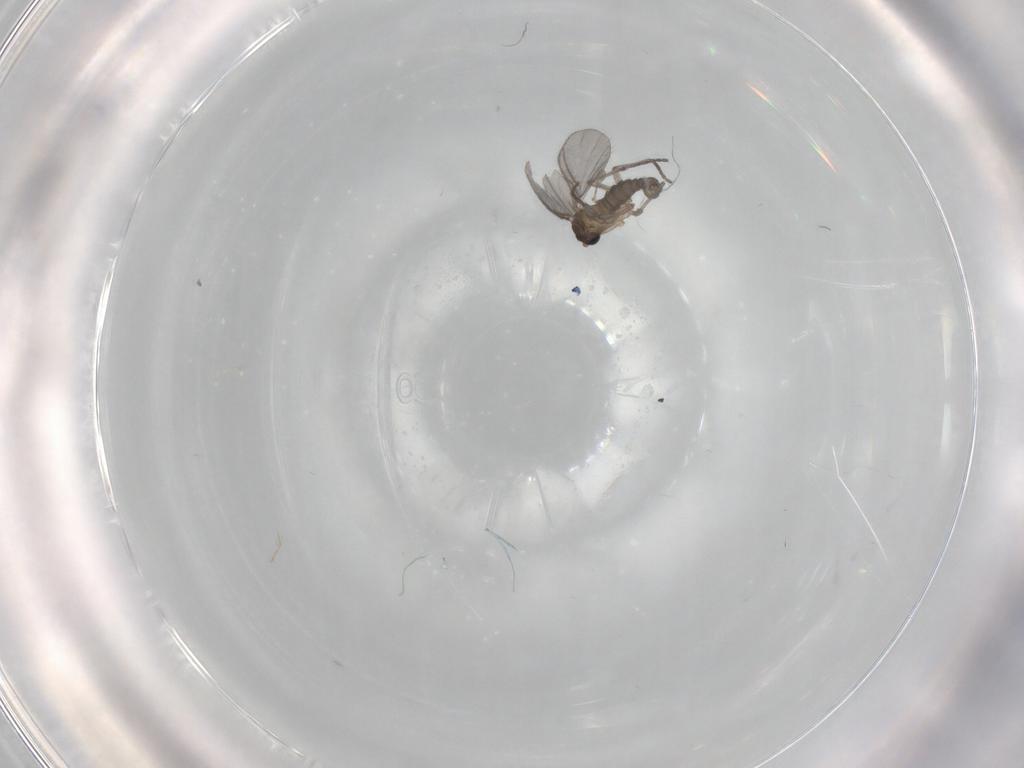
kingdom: Animalia
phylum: Arthropoda
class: Insecta
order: Diptera
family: Sciaridae
